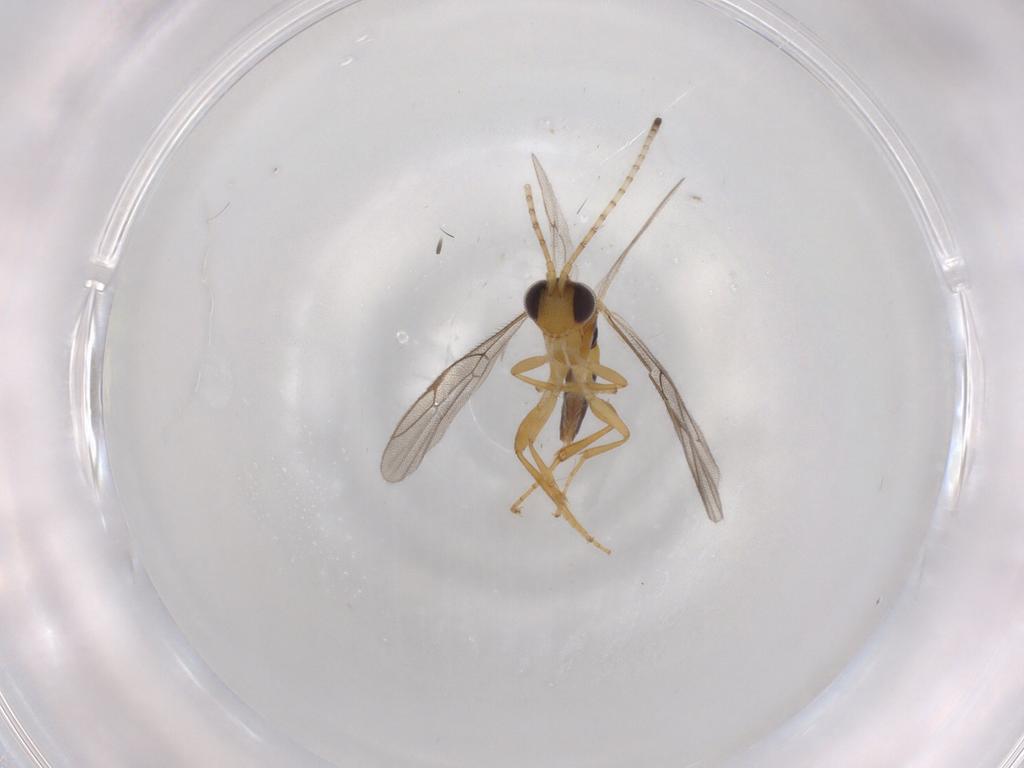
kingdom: Animalia
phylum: Arthropoda
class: Insecta
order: Hymenoptera
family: Ichneumonidae
